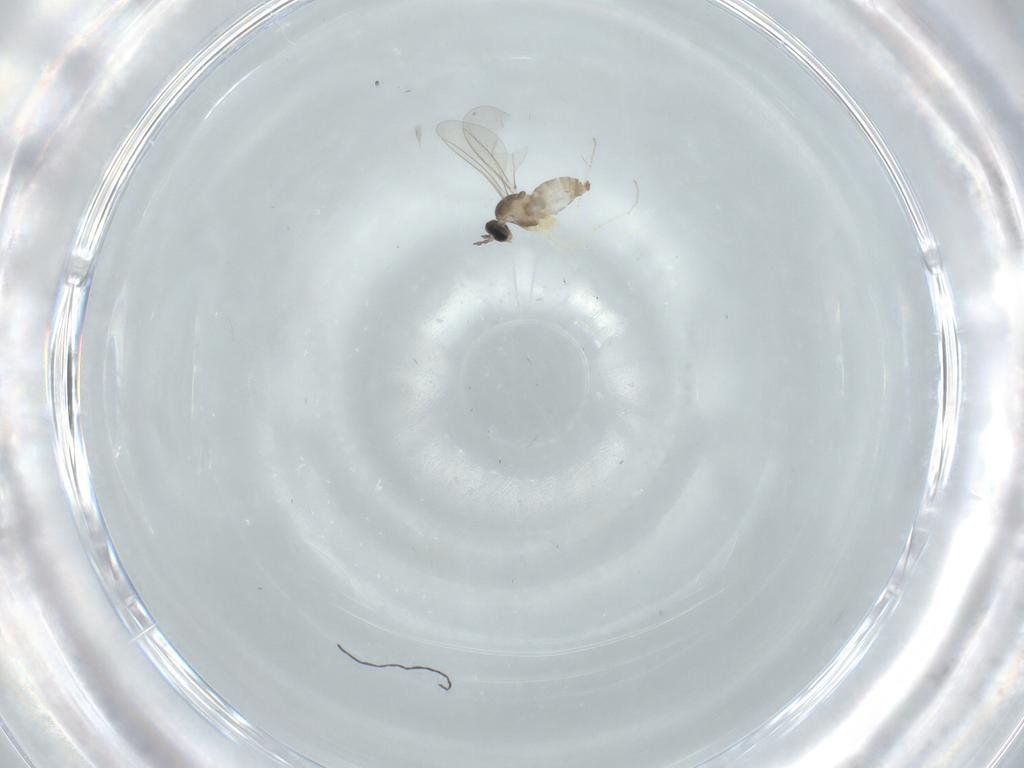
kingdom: Animalia
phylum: Arthropoda
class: Insecta
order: Diptera
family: Cecidomyiidae
